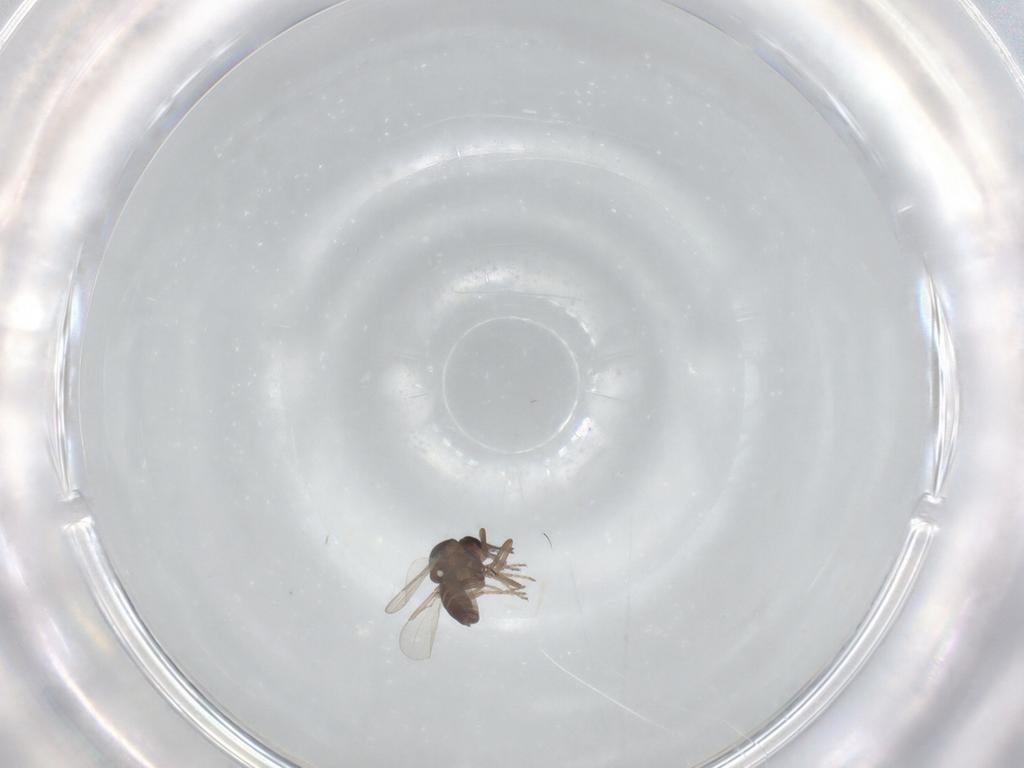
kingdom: Animalia
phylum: Arthropoda
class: Insecta
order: Diptera
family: Ceratopogonidae
